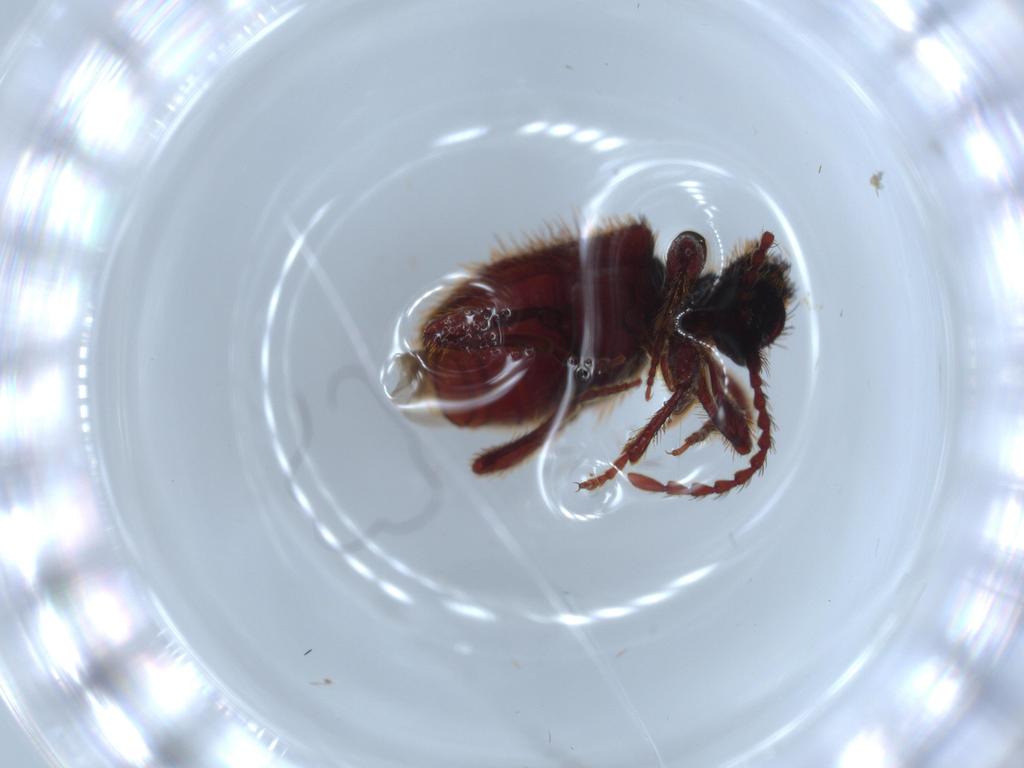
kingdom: Animalia
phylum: Arthropoda
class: Insecta
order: Coleoptera
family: Ptinidae
